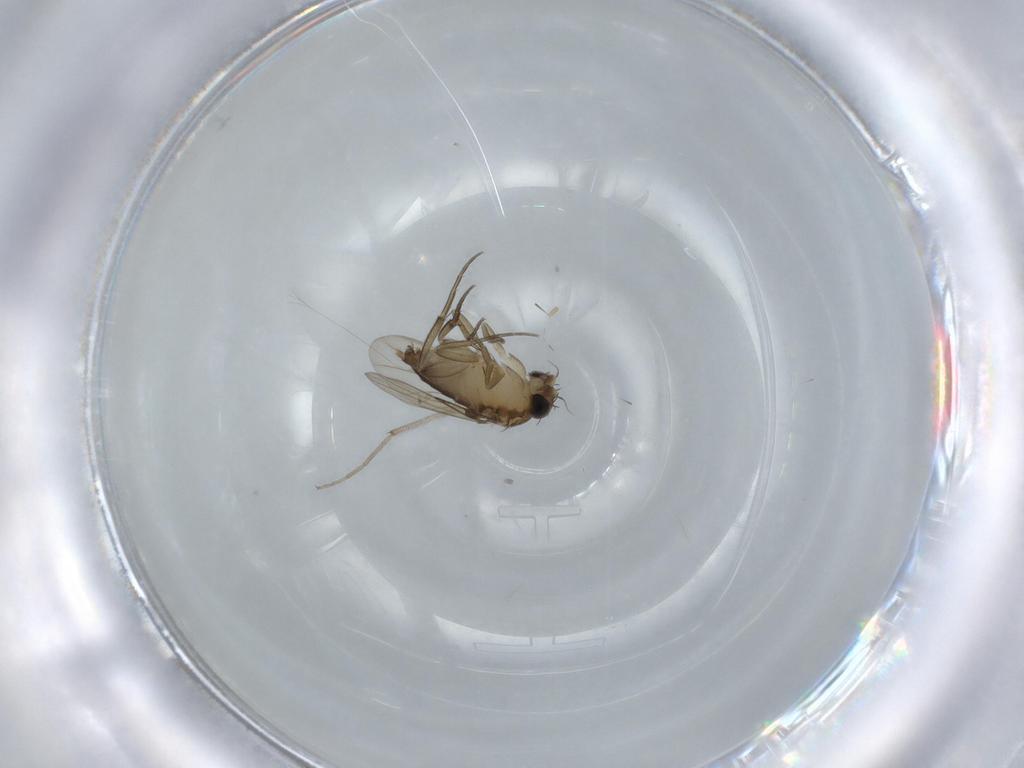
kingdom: Animalia
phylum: Arthropoda
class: Insecta
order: Diptera
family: Phoridae
